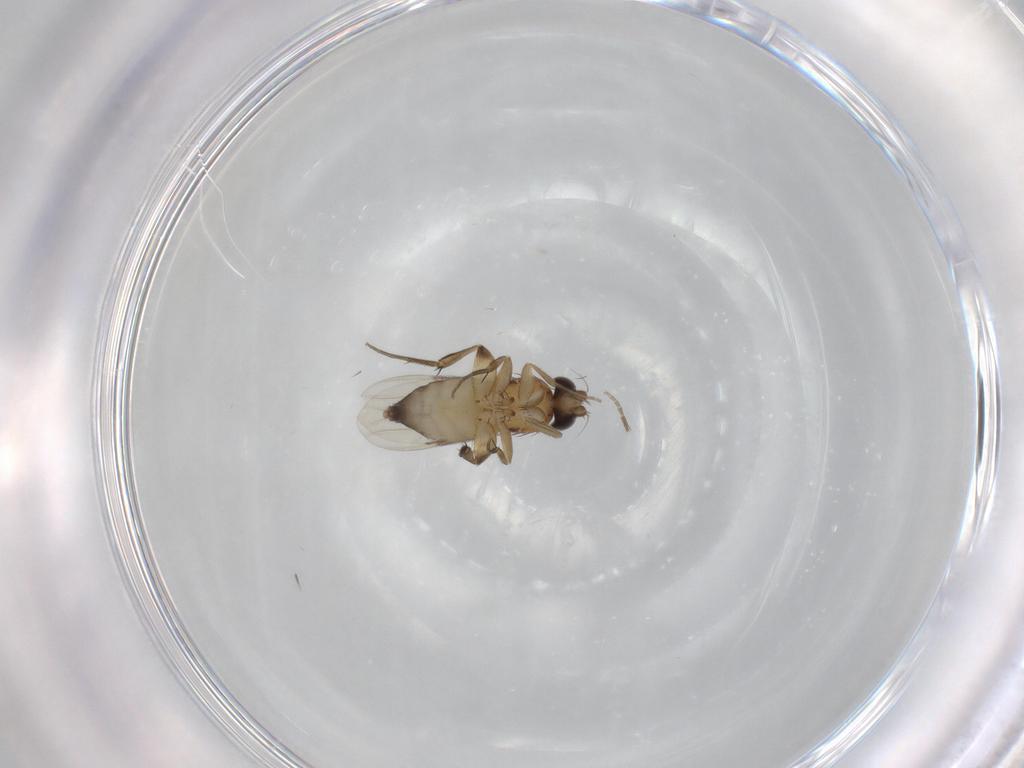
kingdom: Animalia
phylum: Arthropoda
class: Insecta
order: Diptera
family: Phoridae
